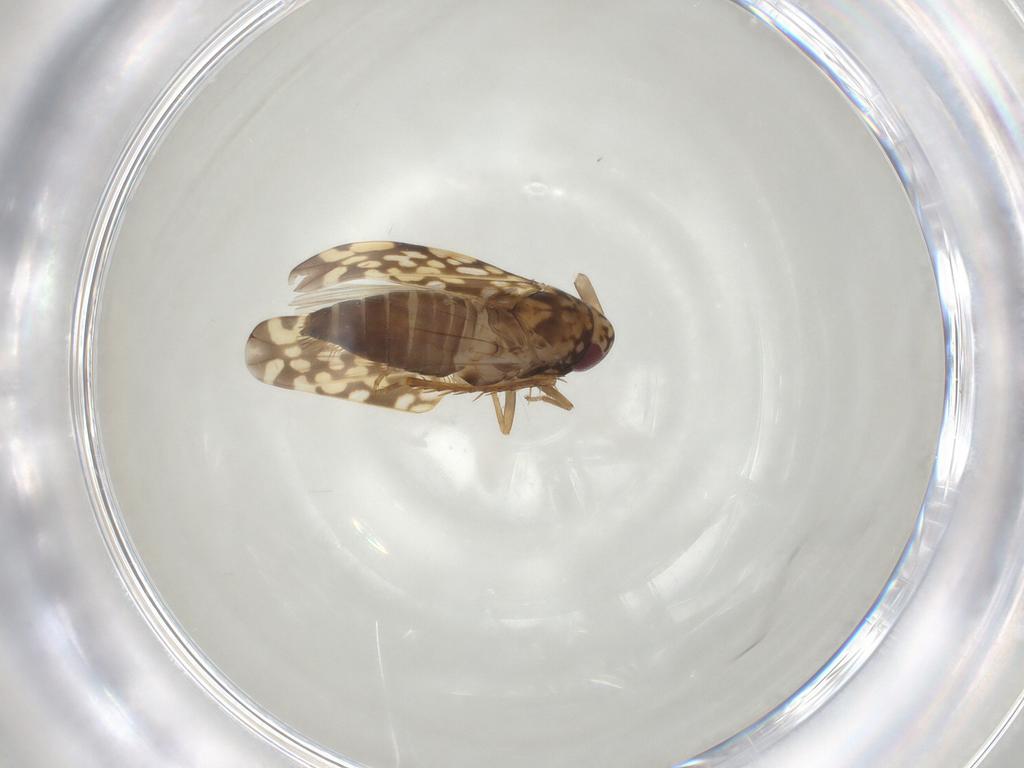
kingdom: Animalia
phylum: Arthropoda
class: Insecta
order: Hemiptera
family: Cicadellidae
